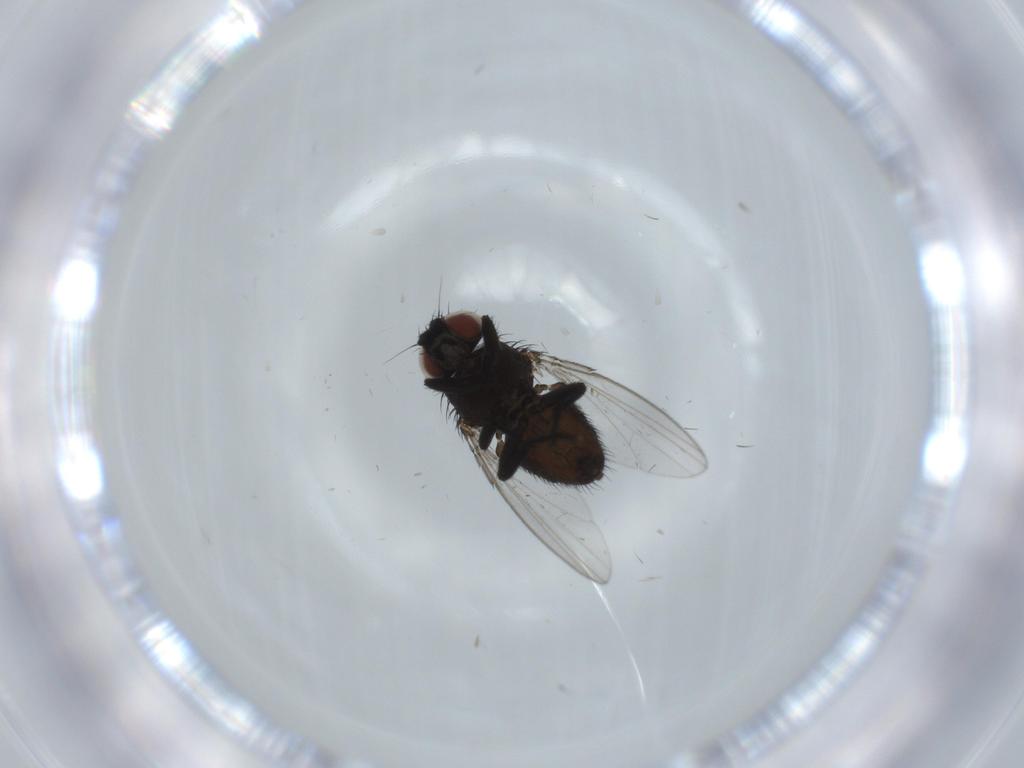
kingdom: Animalia
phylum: Arthropoda
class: Insecta
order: Diptera
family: Milichiidae
